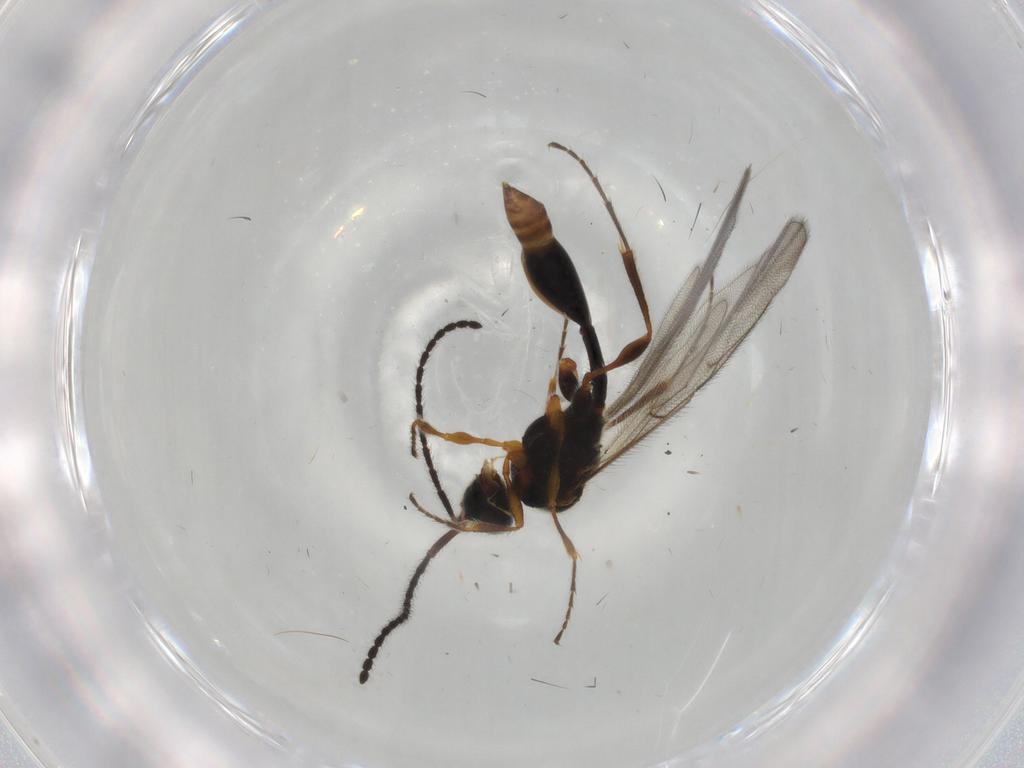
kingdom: Animalia
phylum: Arthropoda
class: Insecta
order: Hymenoptera
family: Diapriidae
